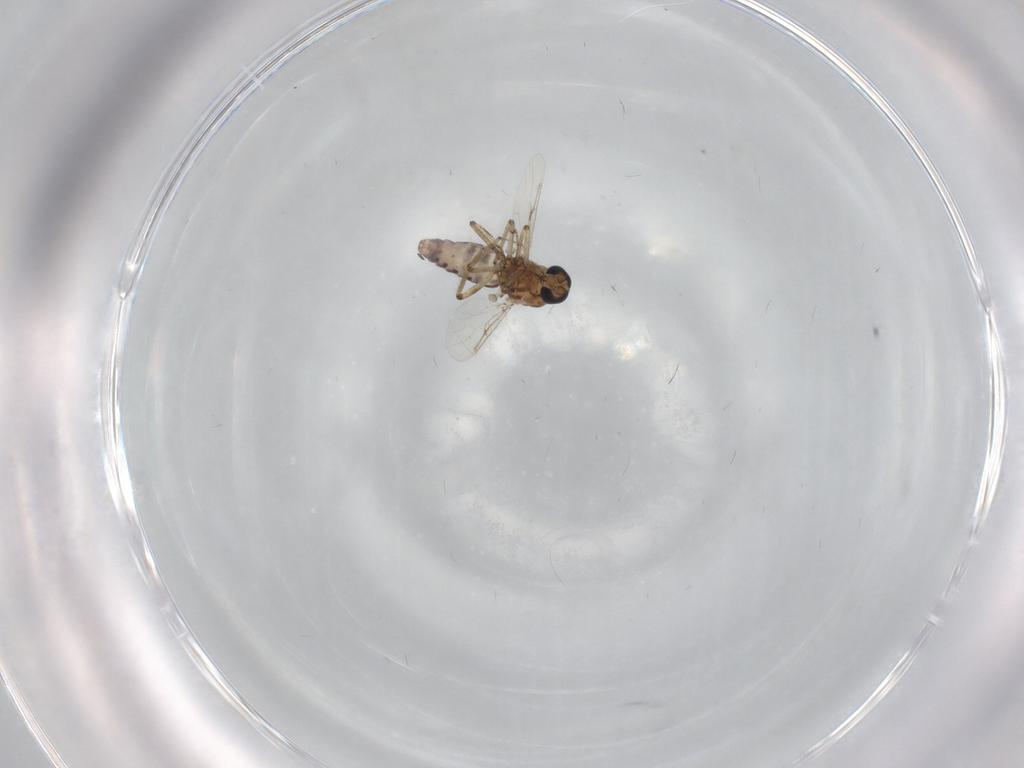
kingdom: Animalia
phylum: Arthropoda
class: Insecta
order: Diptera
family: Ceratopogonidae
